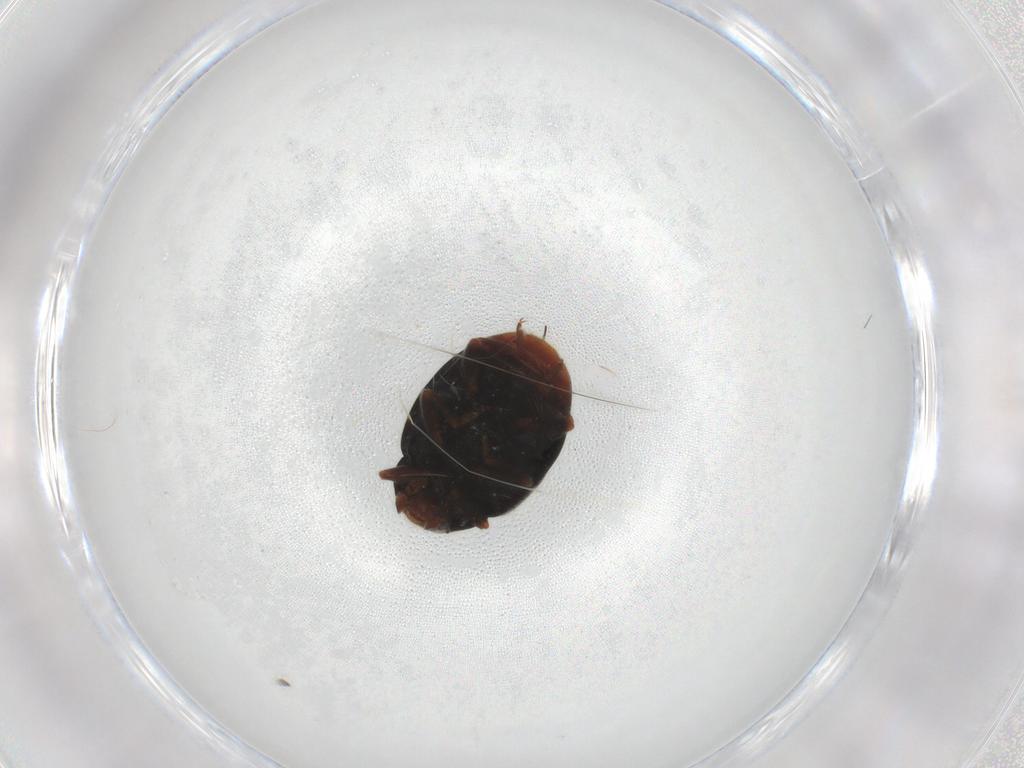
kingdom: Animalia
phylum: Arthropoda
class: Insecta
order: Coleoptera
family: Coccinellidae
